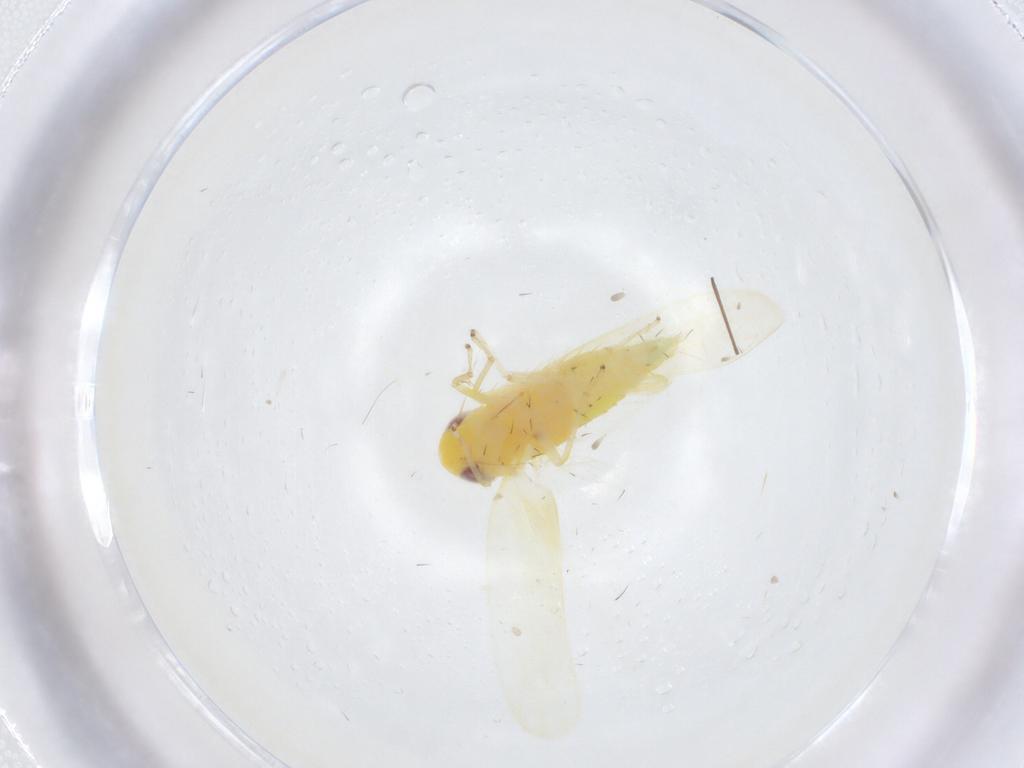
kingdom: Animalia
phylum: Arthropoda
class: Insecta
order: Hemiptera
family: Cicadellidae
